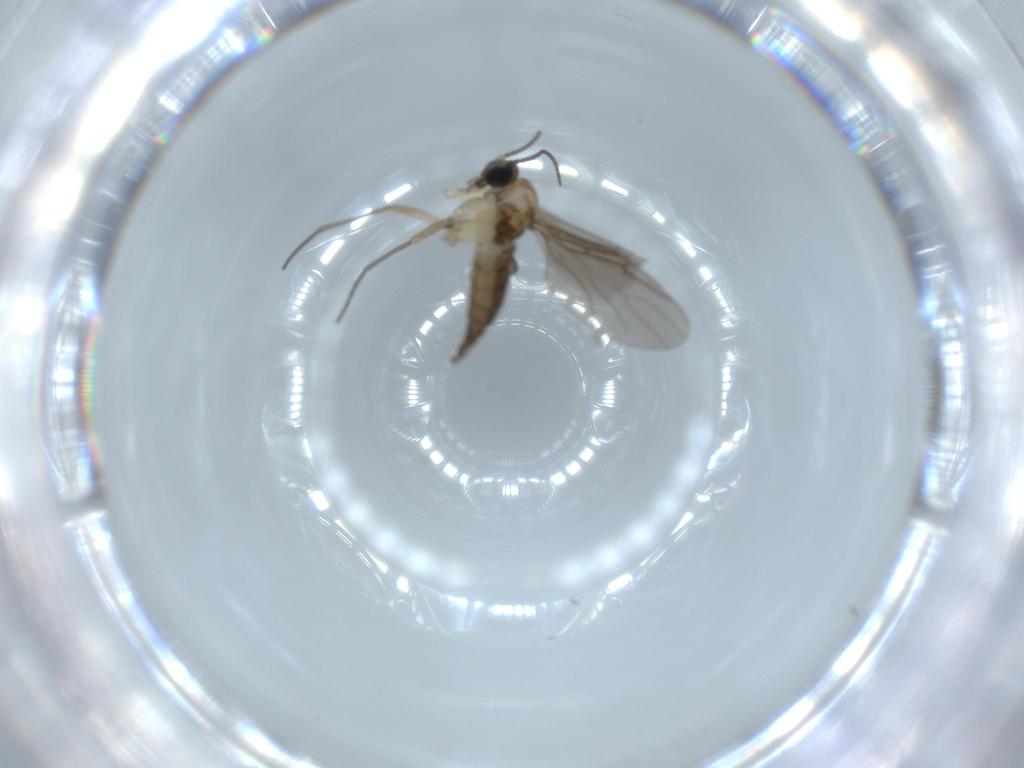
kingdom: Animalia
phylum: Arthropoda
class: Insecta
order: Diptera
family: Sciaridae
